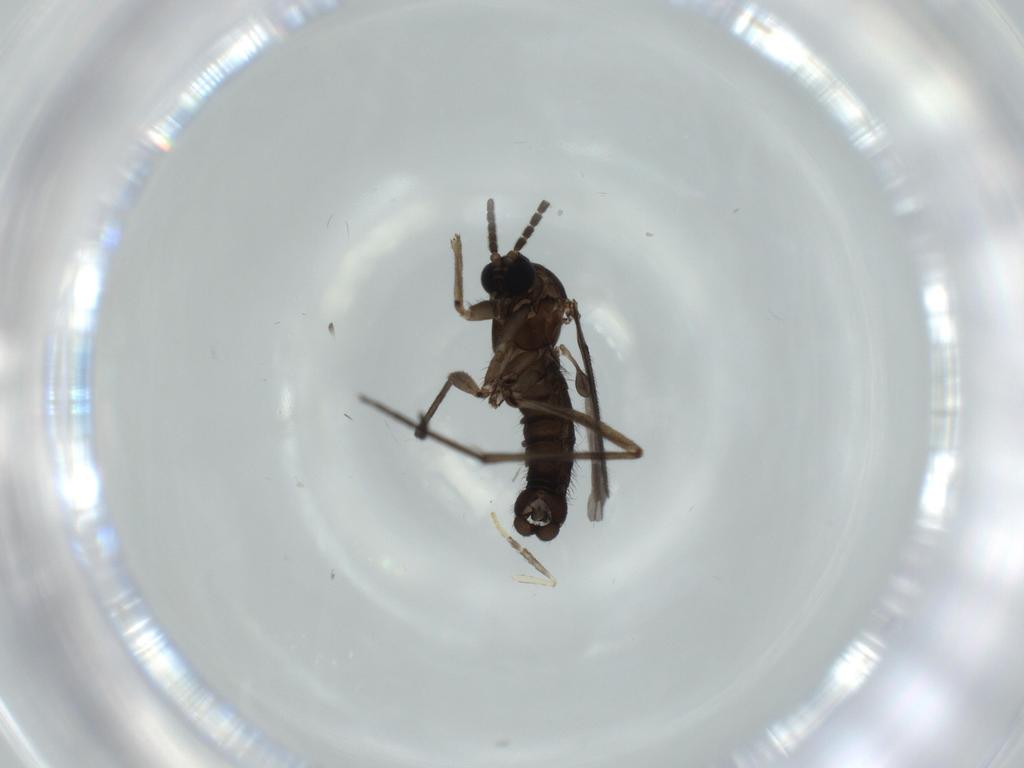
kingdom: Animalia
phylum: Arthropoda
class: Insecta
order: Diptera
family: Sciaridae
